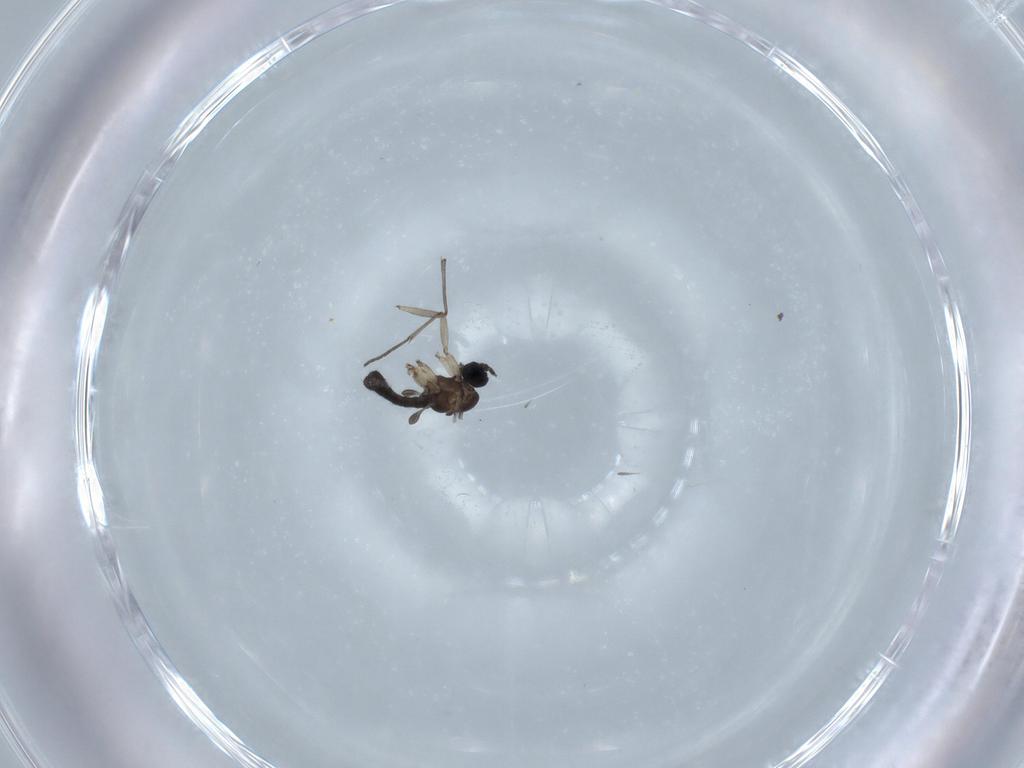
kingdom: Animalia
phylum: Arthropoda
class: Insecta
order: Diptera
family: Sciaridae
